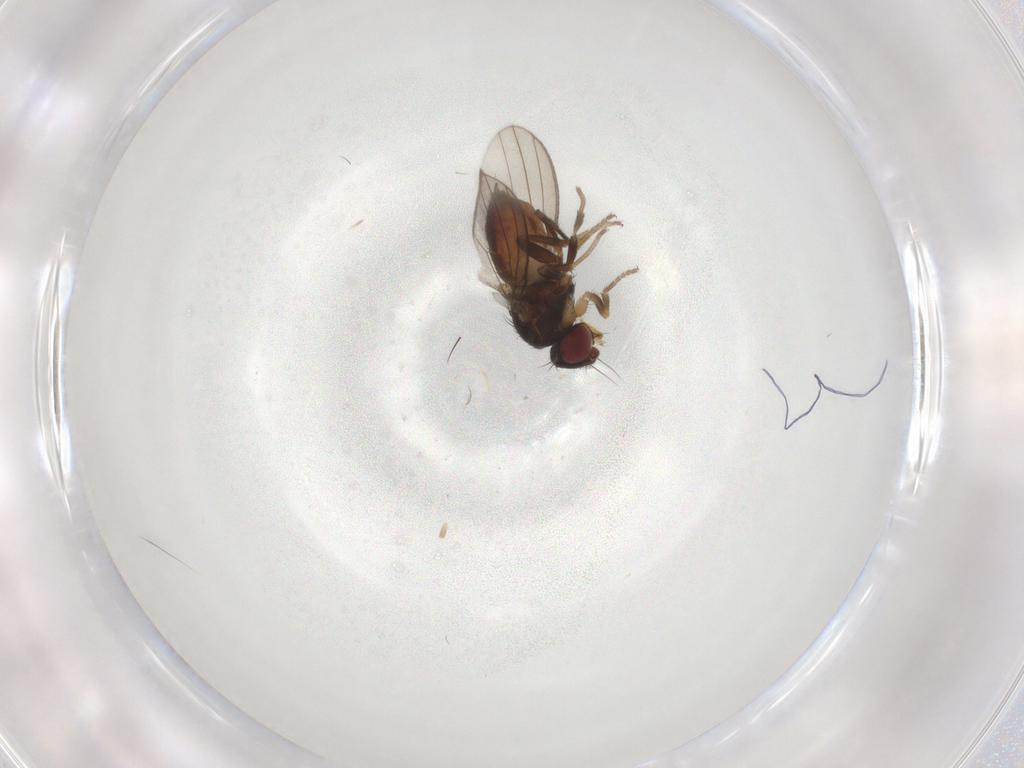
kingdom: Animalia
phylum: Arthropoda
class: Insecta
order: Diptera
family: Milichiidae
